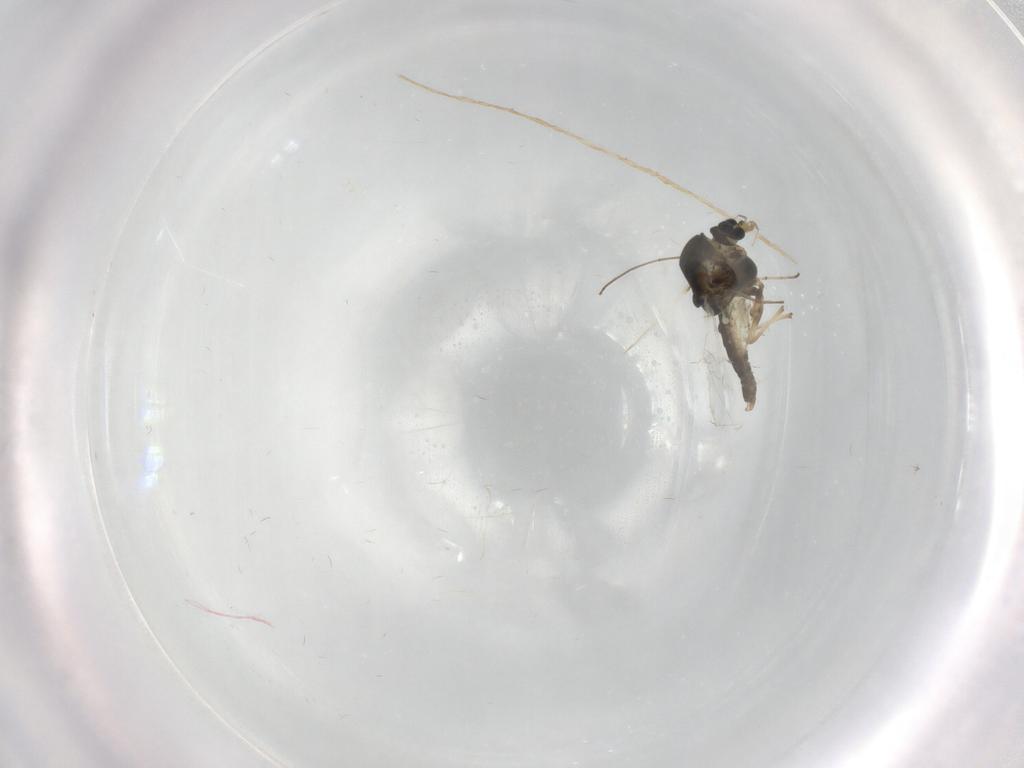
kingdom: Animalia
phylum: Arthropoda
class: Insecta
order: Diptera
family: Chironomidae
